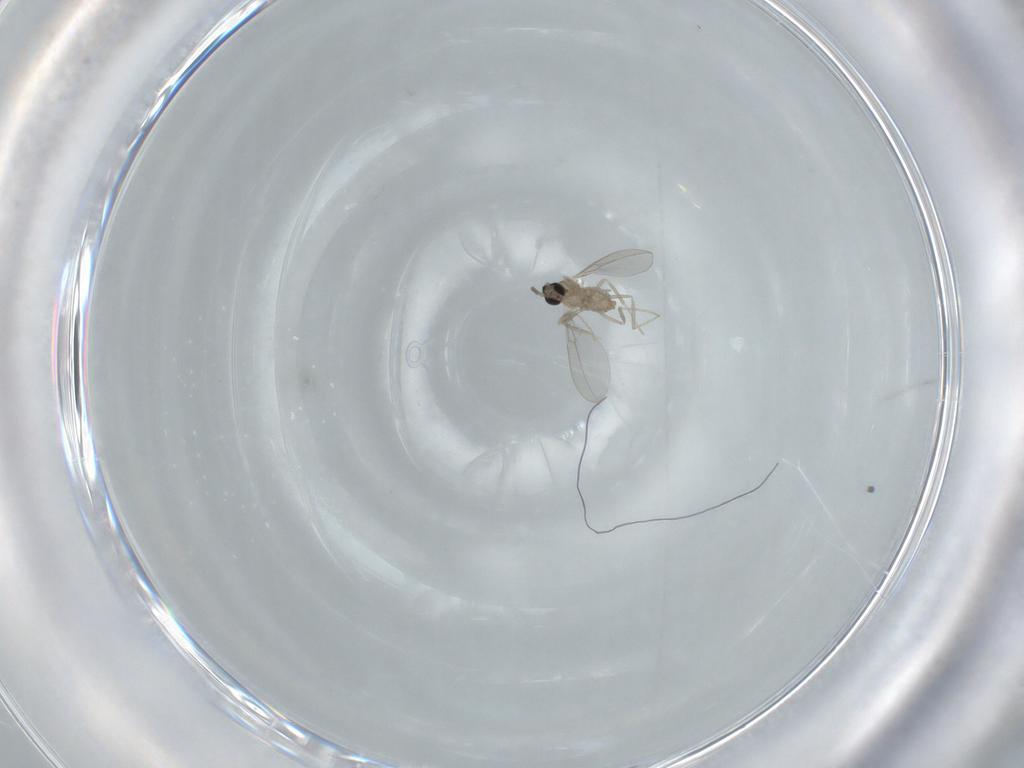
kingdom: Animalia
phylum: Arthropoda
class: Insecta
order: Diptera
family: Cecidomyiidae
